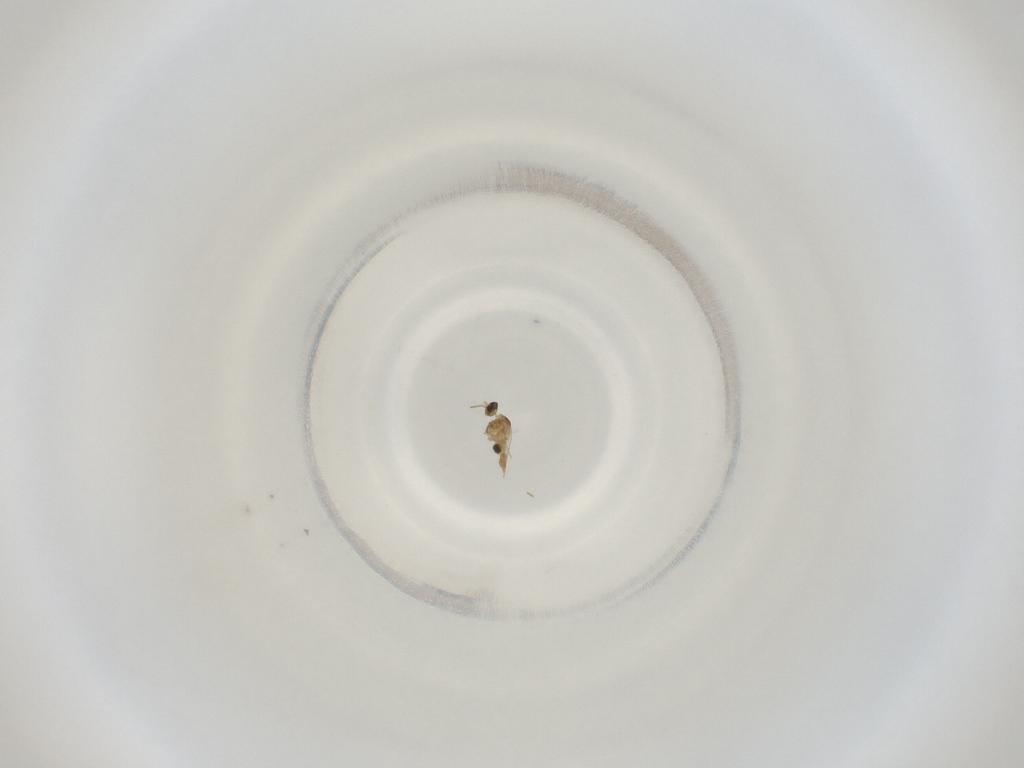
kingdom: Animalia
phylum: Arthropoda
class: Insecta
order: Diptera
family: Cecidomyiidae
